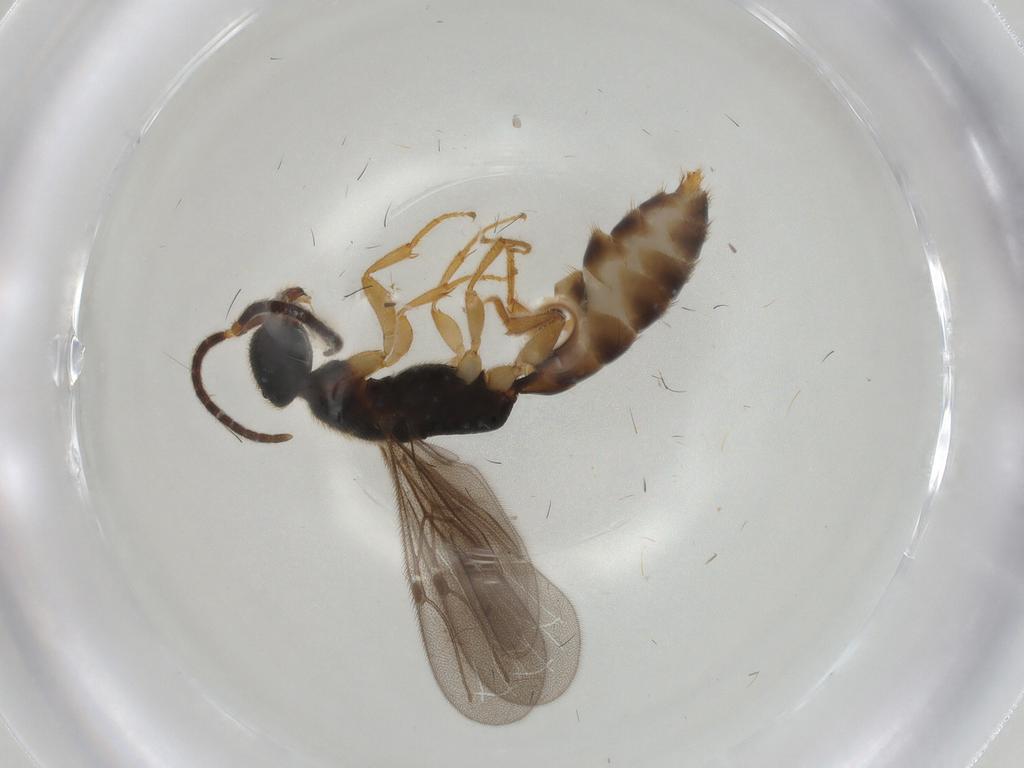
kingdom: Animalia
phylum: Arthropoda
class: Insecta
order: Hymenoptera
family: Bethylidae
